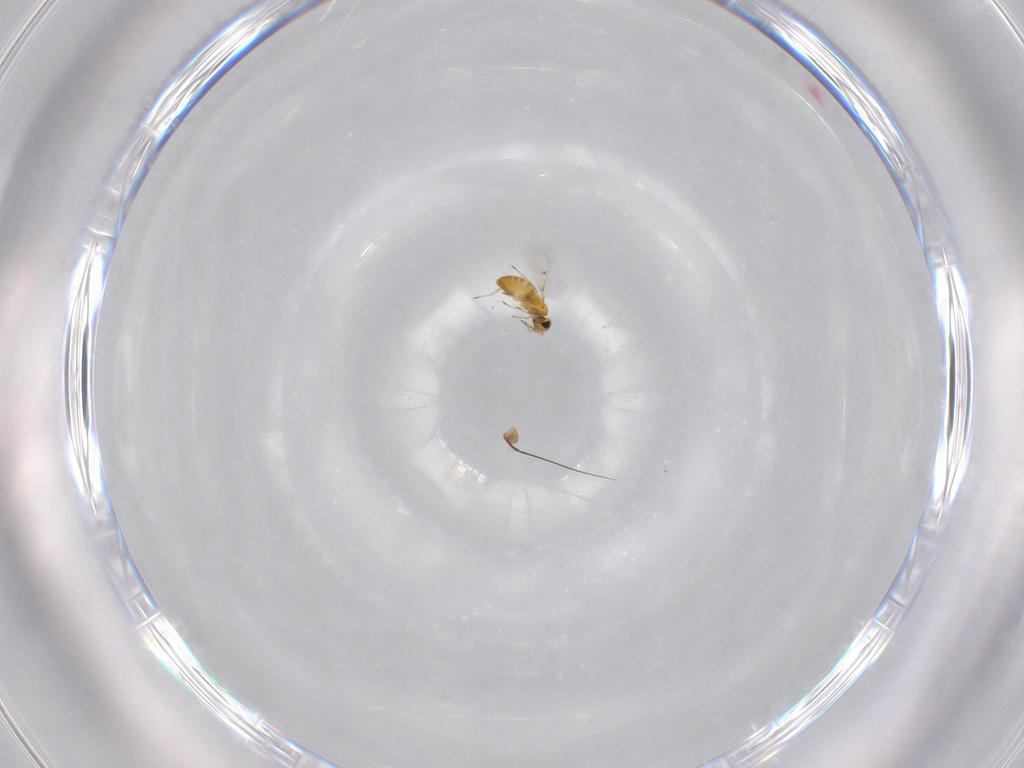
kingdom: Animalia
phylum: Arthropoda
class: Insecta
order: Hymenoptera
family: Trichogrammatidae
